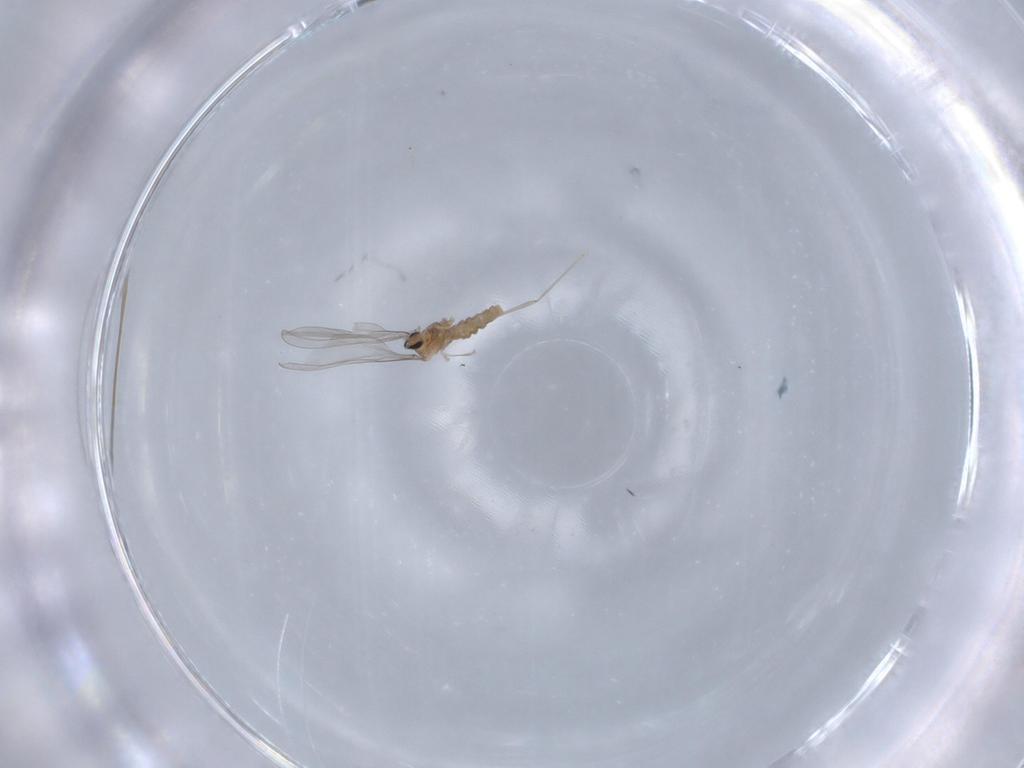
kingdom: Animalia
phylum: Arthropoda
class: Insecta
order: Diptera
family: Cecidomyiidae
